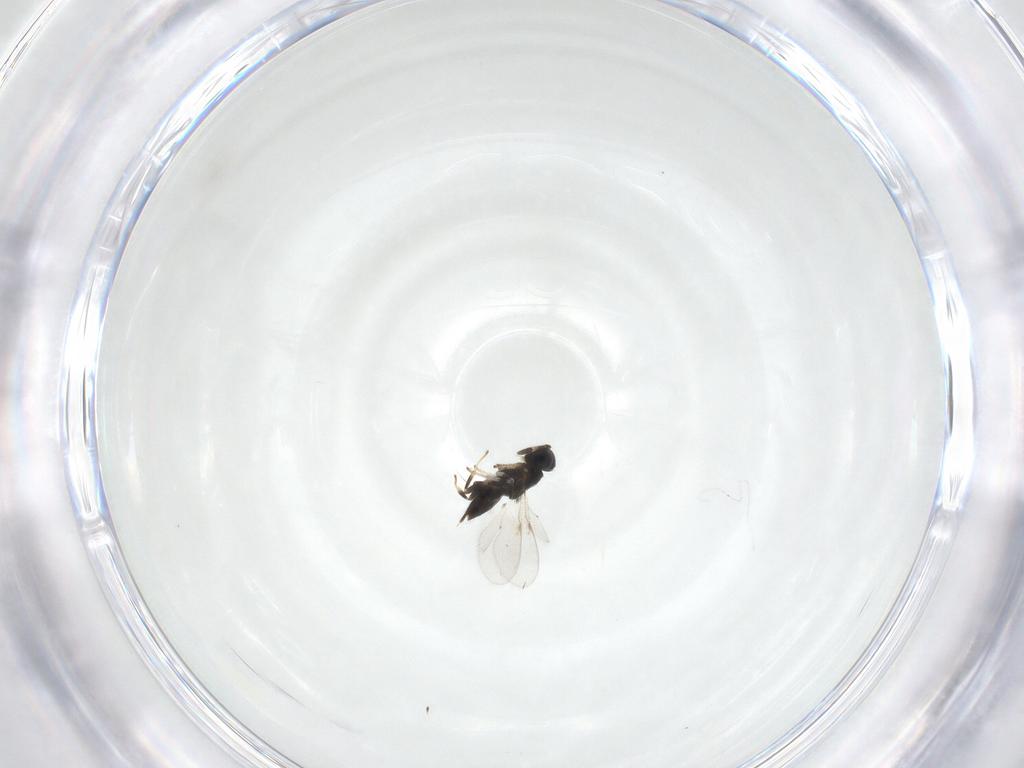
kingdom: Animalia
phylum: Arthropoda
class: Insecta
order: Hymenoptera
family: Encyrtidae
